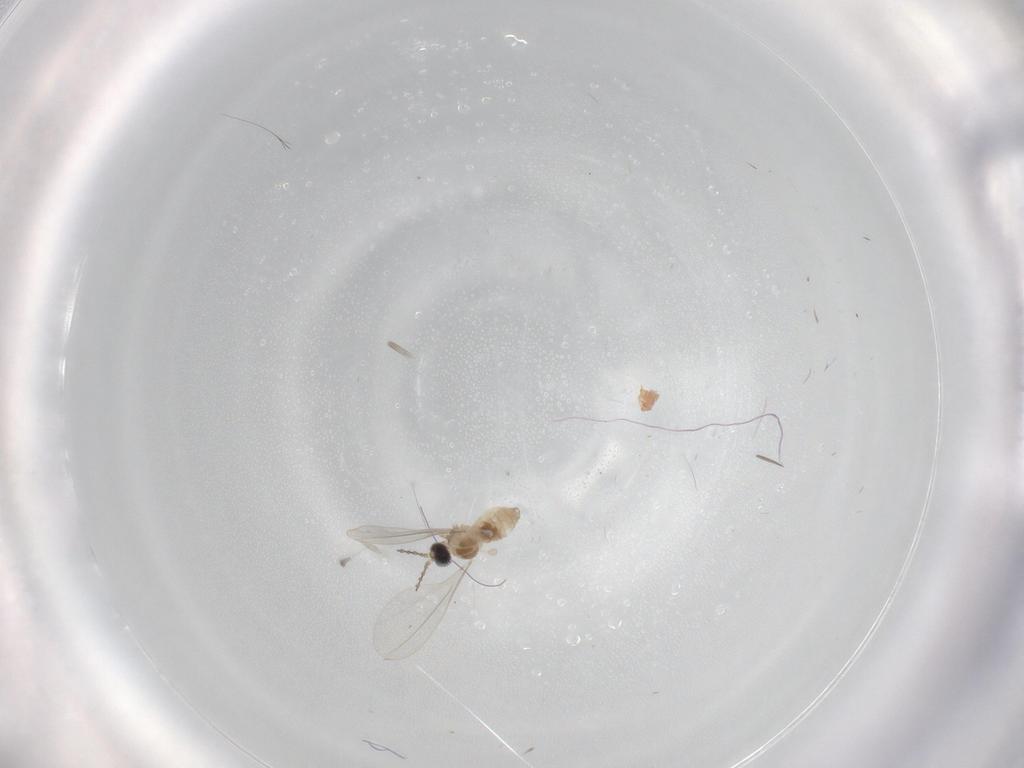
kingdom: Animalia
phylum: Arthropoda
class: Insecta
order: Diptera
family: Cecidomyiidae
